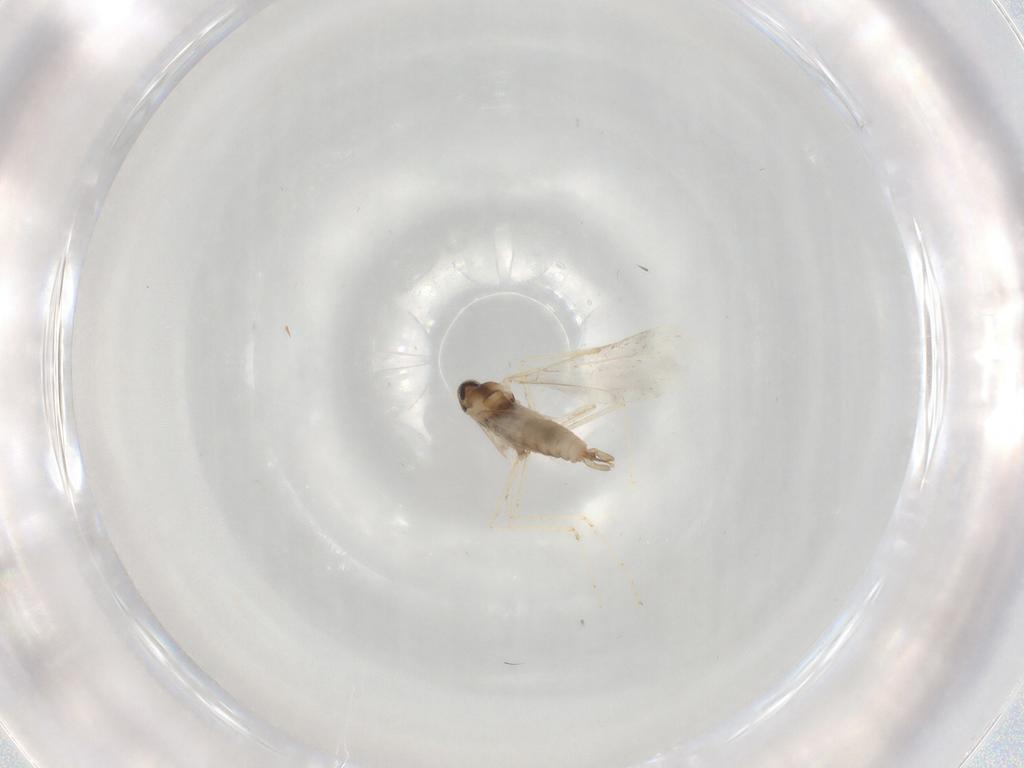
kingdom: Animalia
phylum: Arthropoda
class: Insecta
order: Diptera
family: Cecidomyiidae
